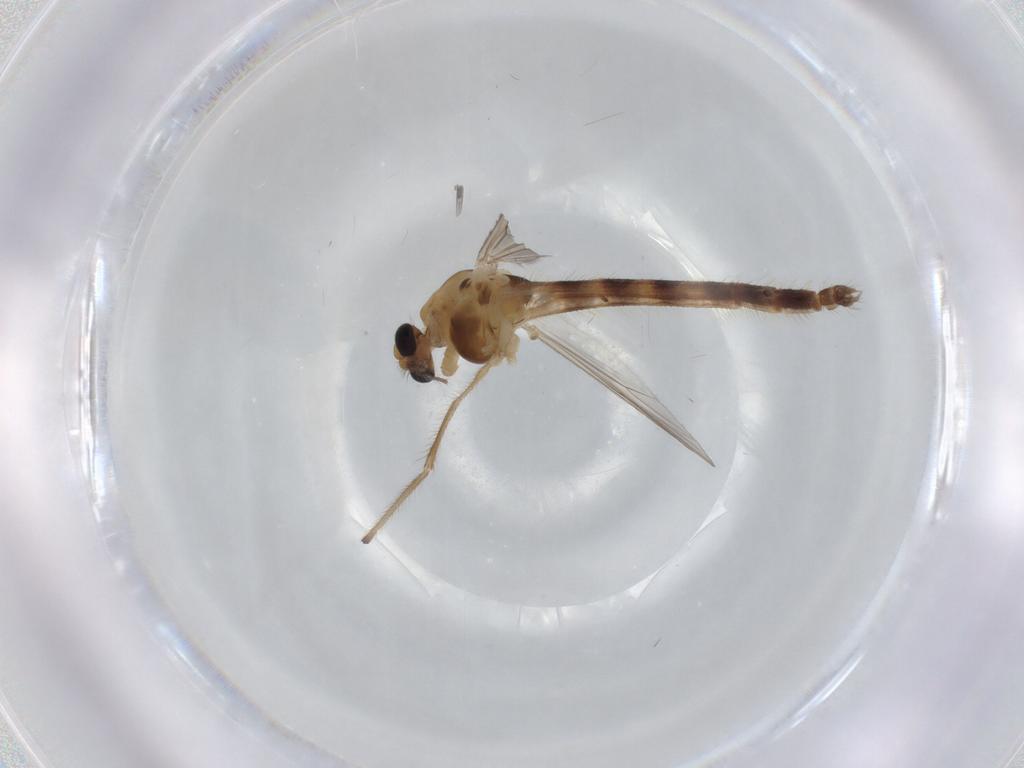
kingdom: Animalia
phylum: Arthropoda
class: Insecta
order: Diptera
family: Chironomidae
